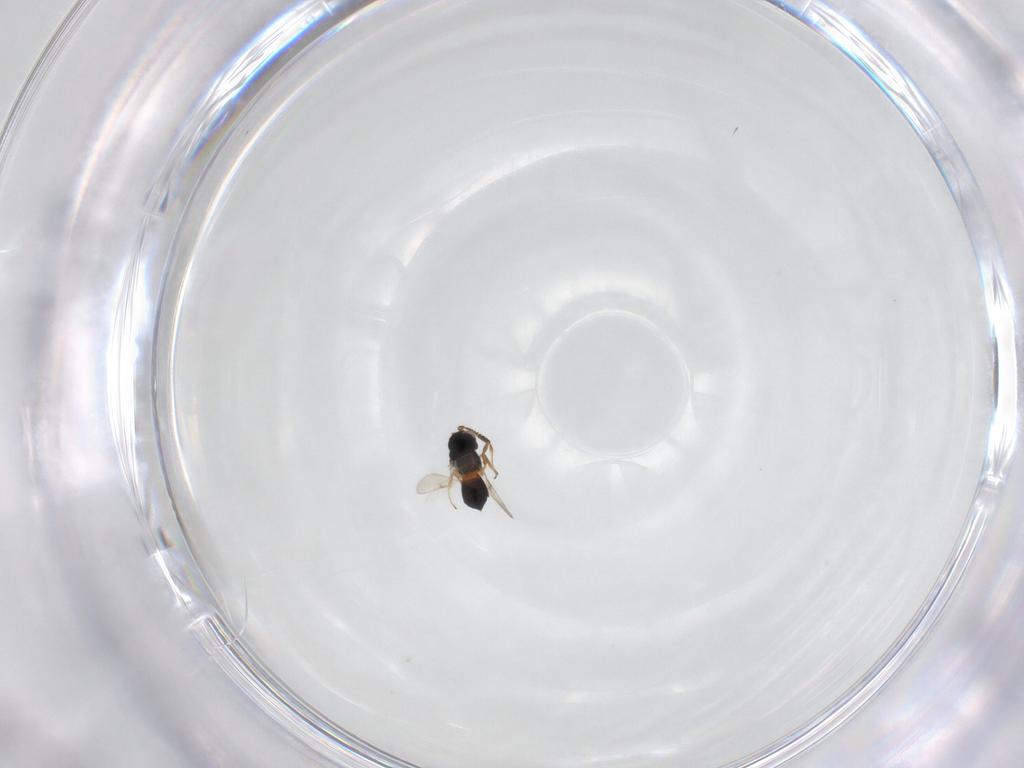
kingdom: Animalia
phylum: Arthropoda
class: Insecta
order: Hymenoptera
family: Scelionidae
